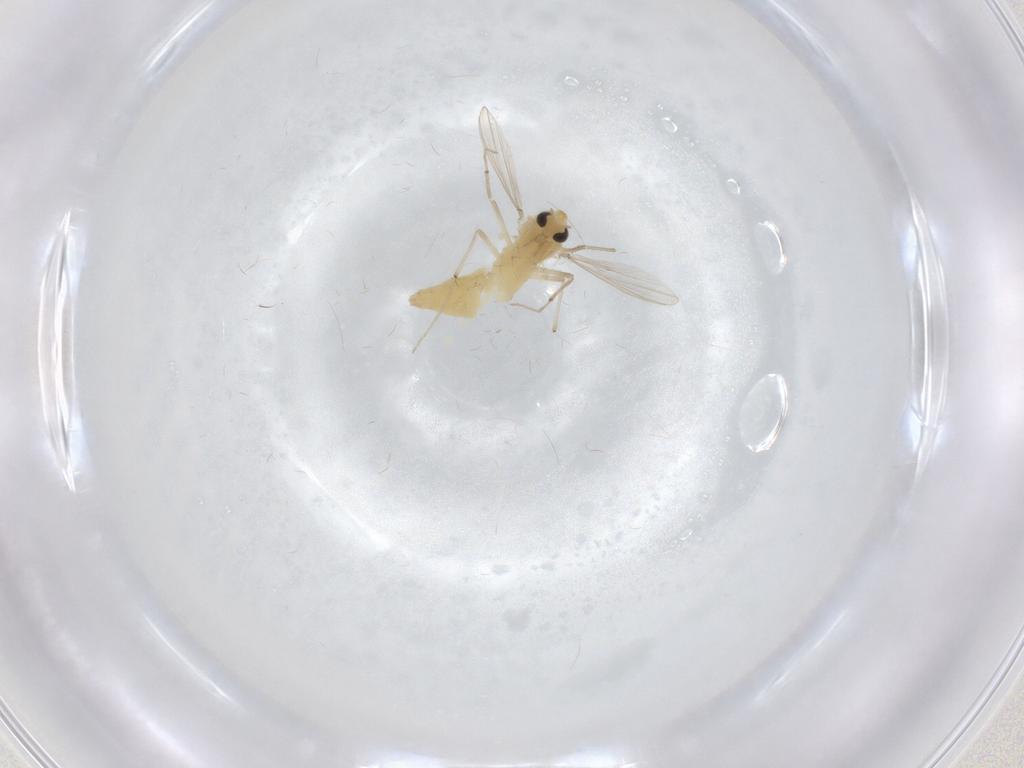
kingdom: Animalia
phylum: Arthropoda
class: Insecta
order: Diptera
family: Chironomidae
